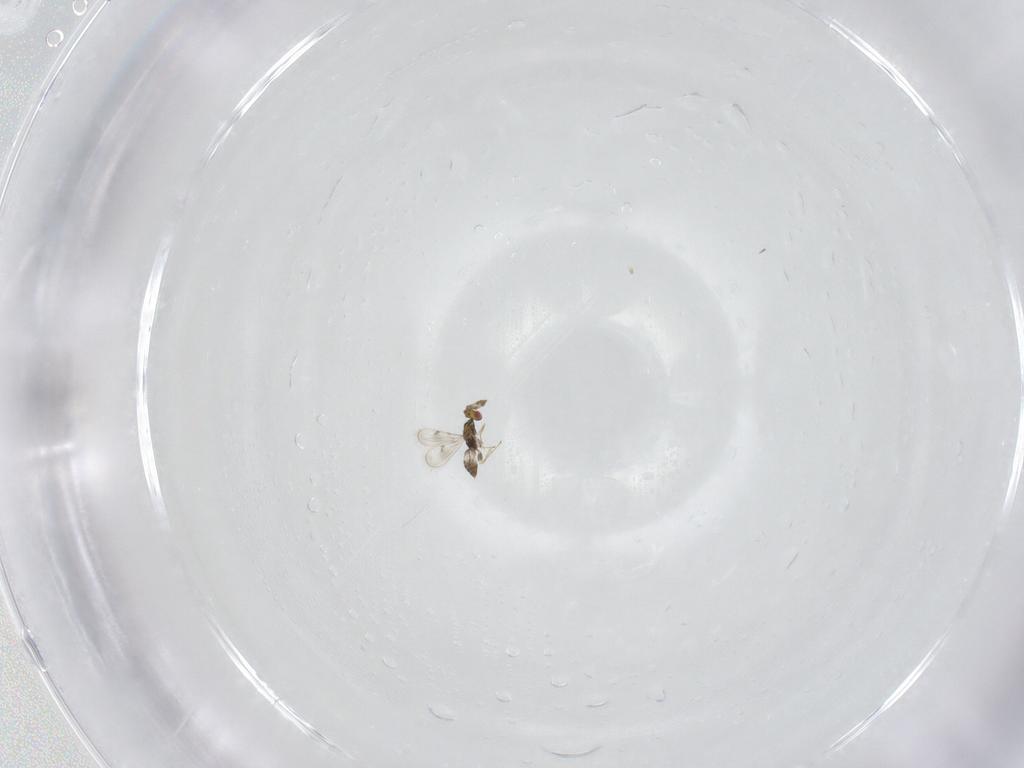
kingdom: Animalia
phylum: Arthropoda
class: Insecta
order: Hymenoptera
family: Eulophidae
